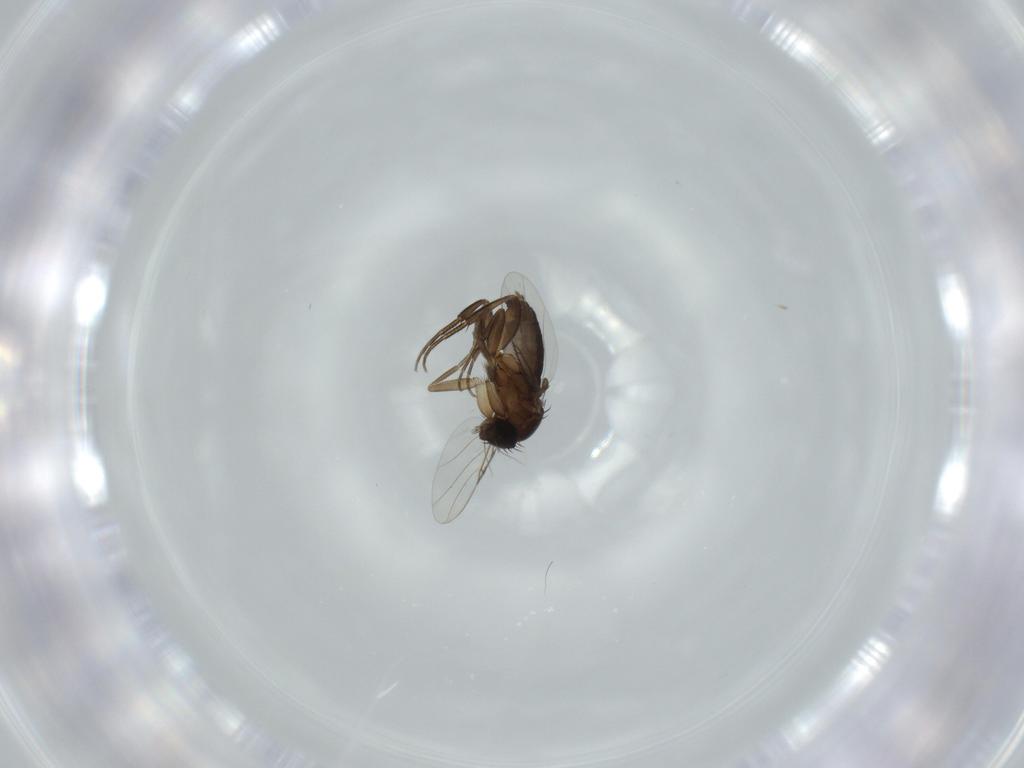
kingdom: Animalia
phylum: Arthropoda
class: Insecta
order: Diptera
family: Phoridae
